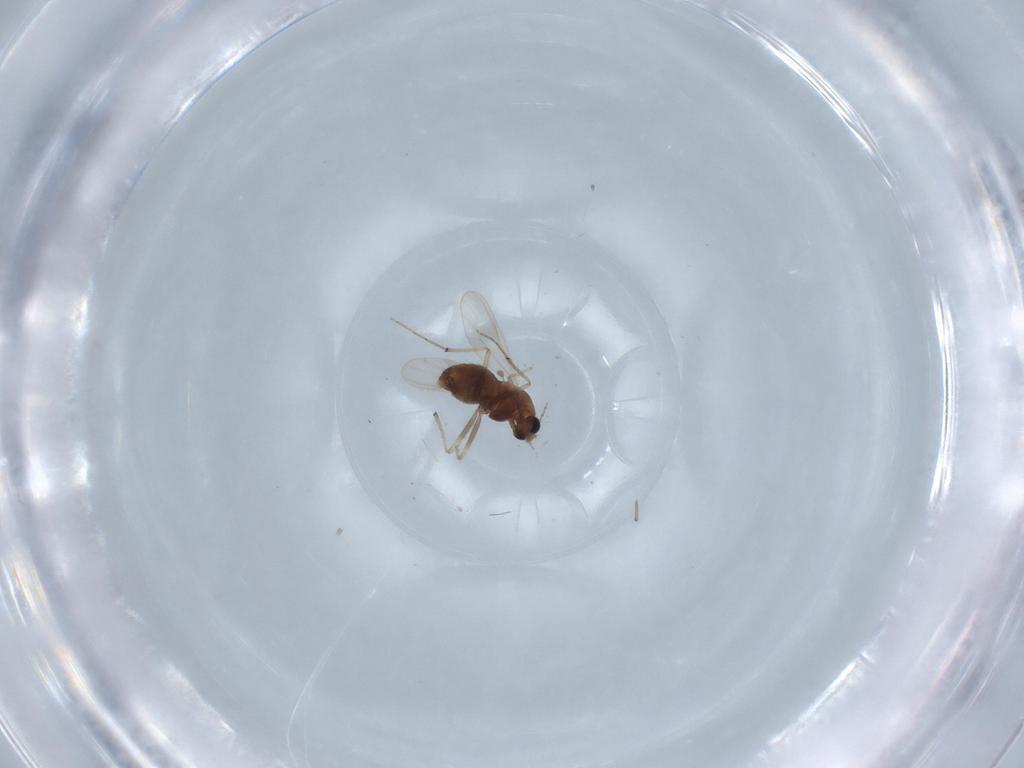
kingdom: Animalia
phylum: Arthropoda
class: Insecta
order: Diptera
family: Chironomidae
